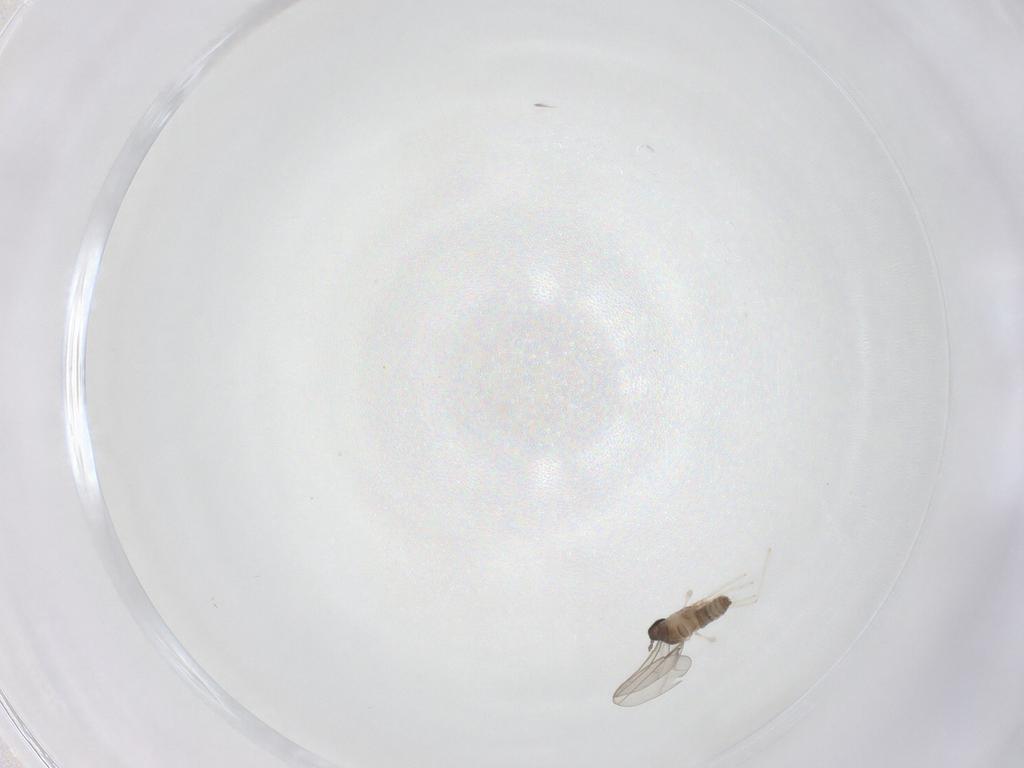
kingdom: Animalia
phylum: Arthropoda
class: Insecta
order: Diptera
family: Cecidomyiidae
